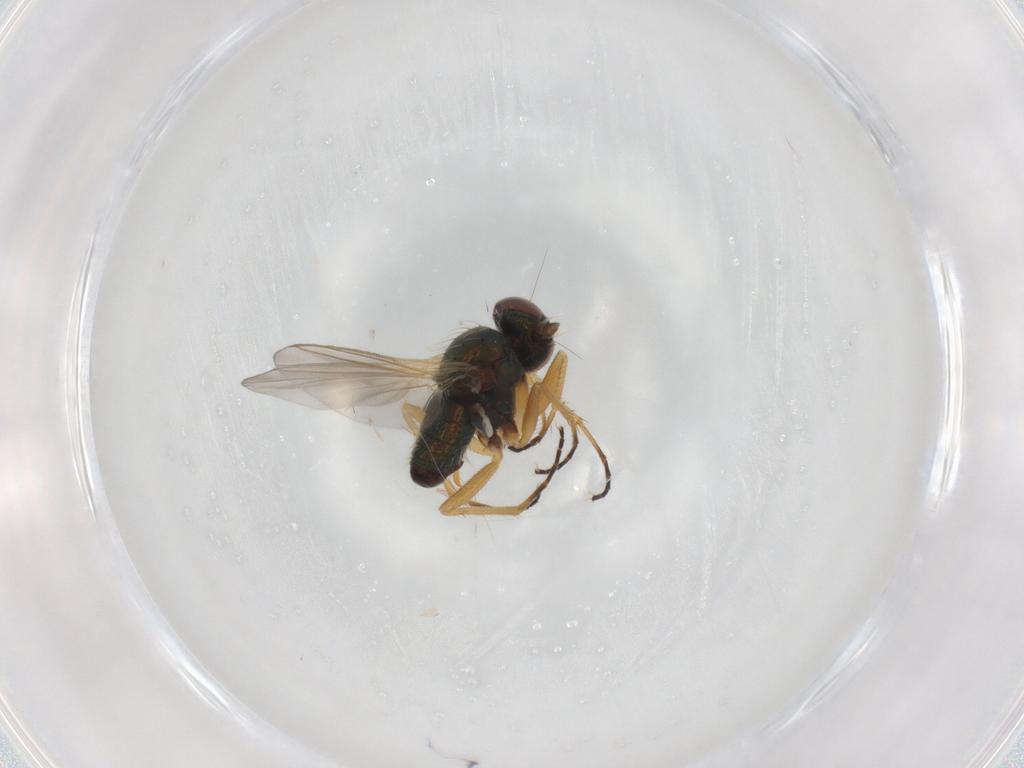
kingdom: Animalia
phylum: Arthropoda
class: Insecta
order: Diptera
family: Dolichopodidae
